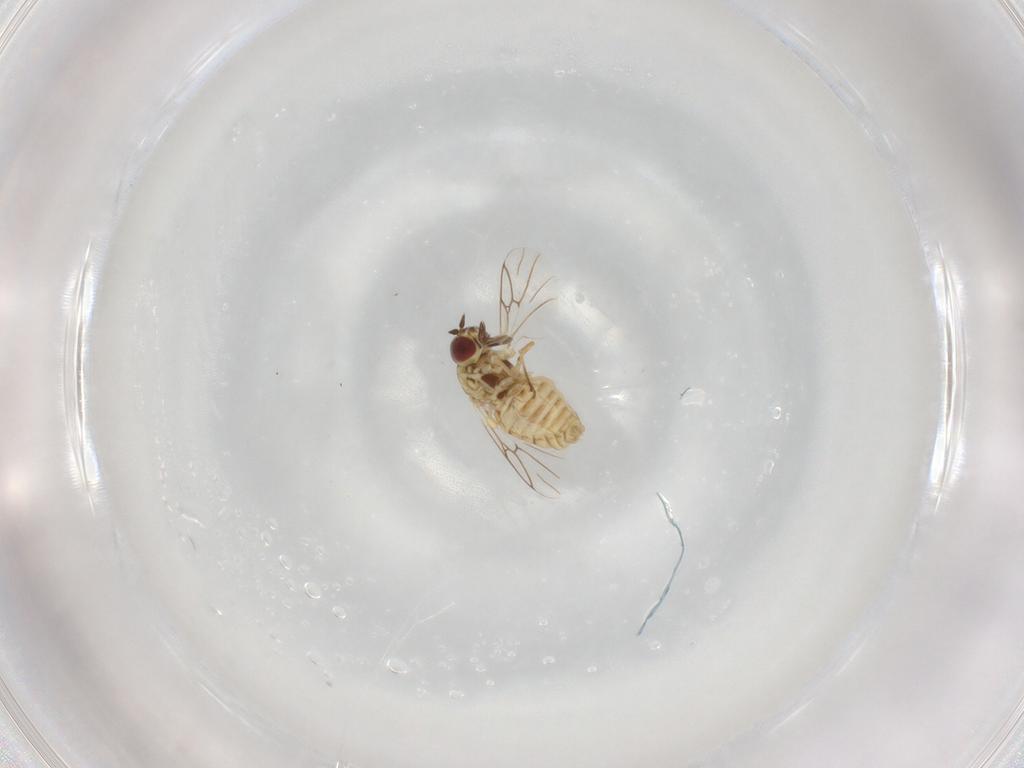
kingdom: Animalia
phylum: Arthropoda
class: Insecta
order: Diptera
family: Bombyliidae
